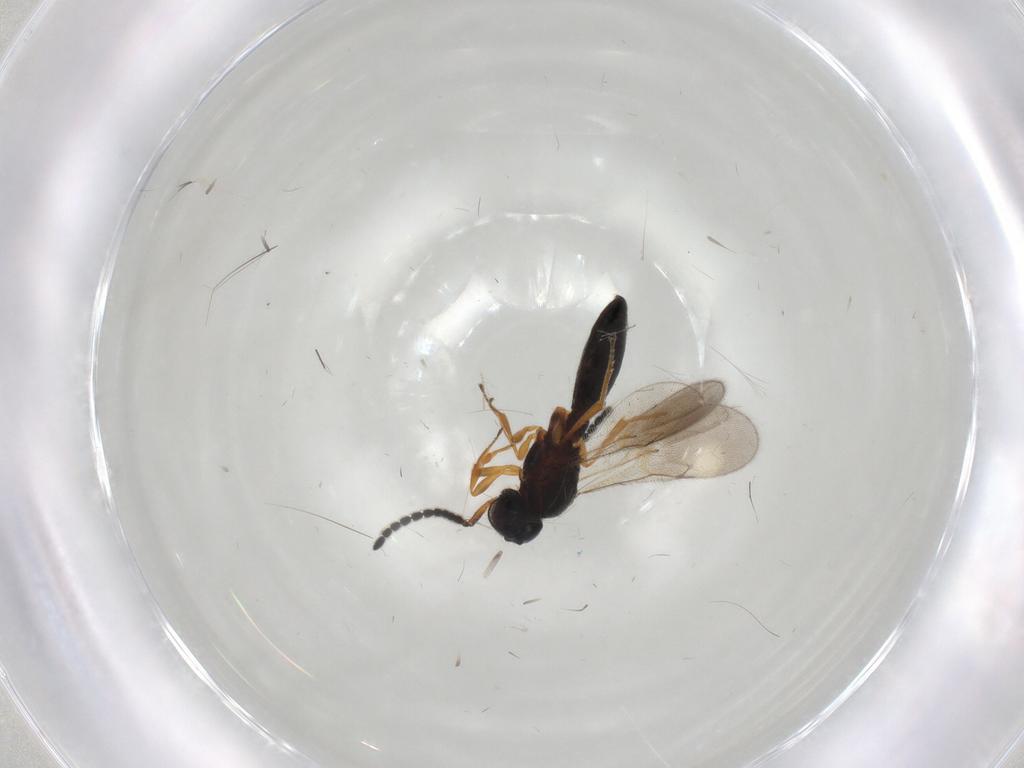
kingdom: Animalia
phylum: Arthropoda
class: Insecta
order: Hymenoptera
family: Scelionidae
